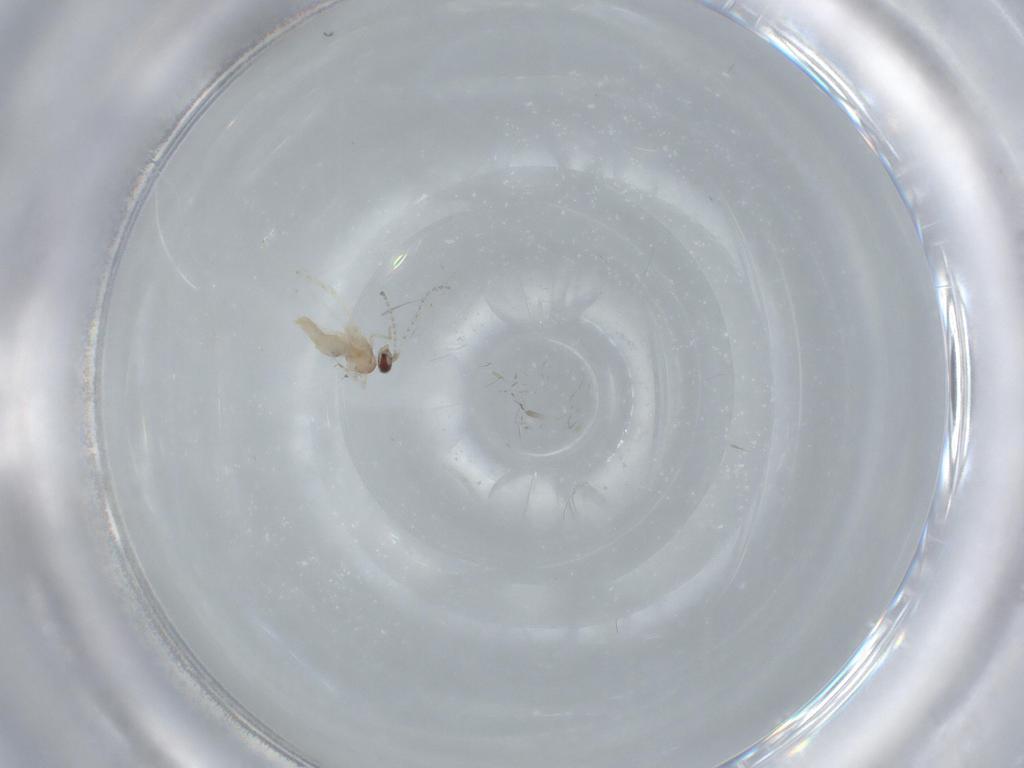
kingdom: Animalia
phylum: Arthropoda
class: Insecta
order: Diptera
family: Cecidomyiidae
